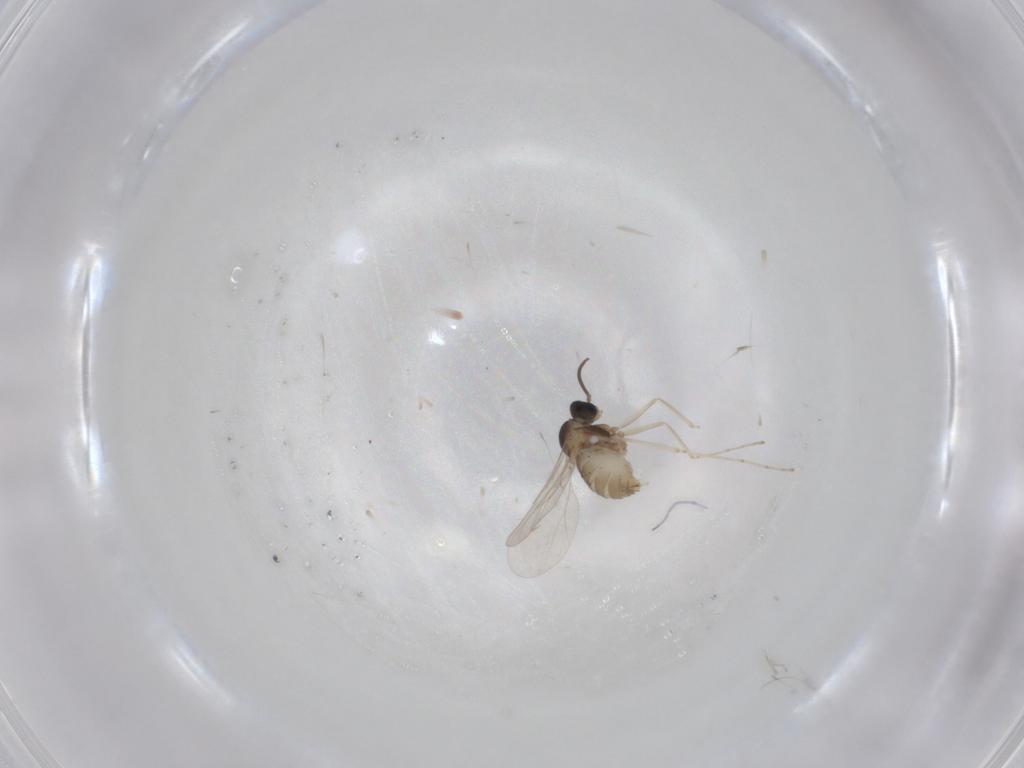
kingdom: Animalia
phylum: Arthropoda
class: Insecta
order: Diptera
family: Cecidomyiidae
